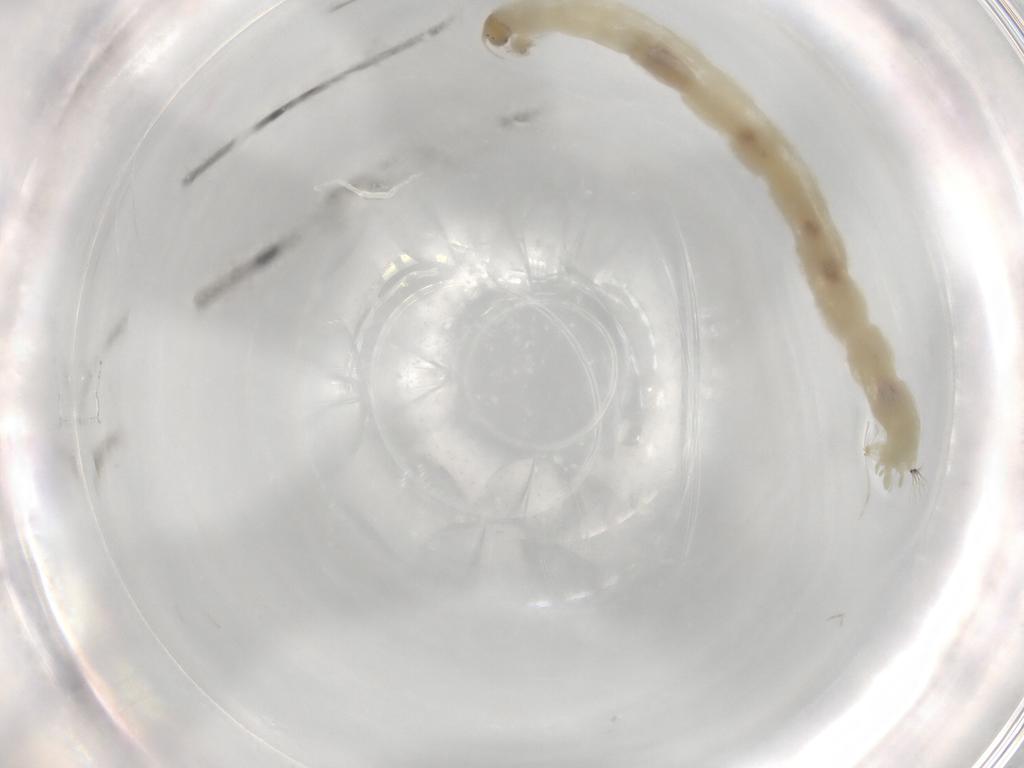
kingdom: Animalia
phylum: Arthropoda
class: Insecta
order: Diptera
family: Chironomidae
